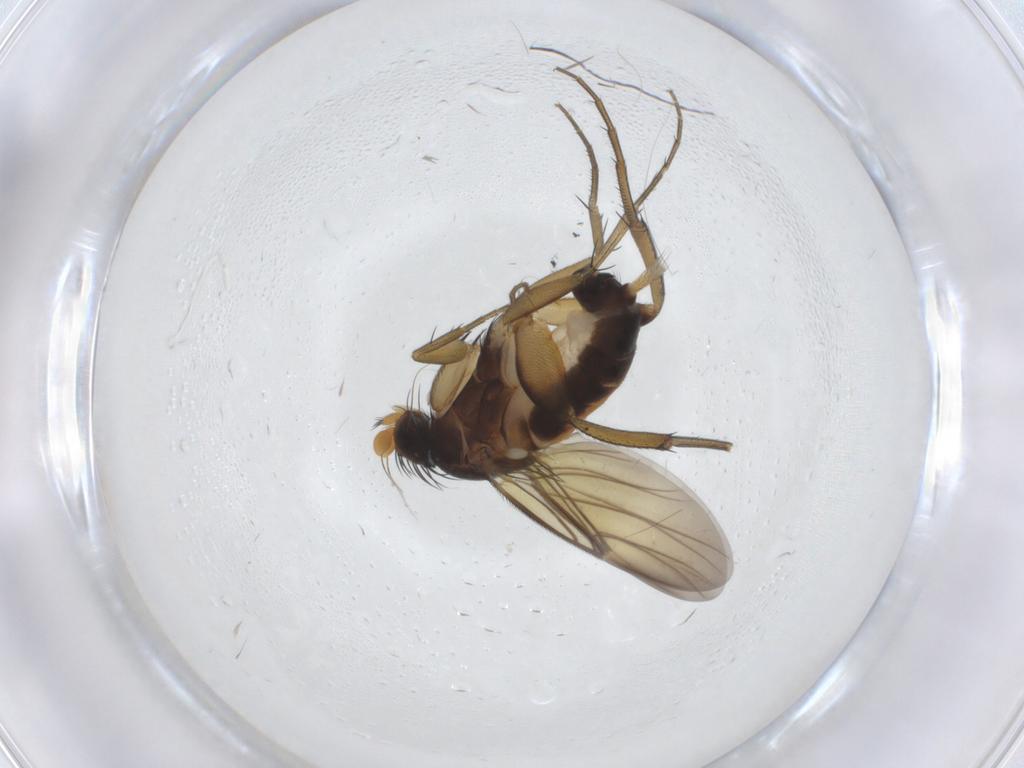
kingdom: Animalia
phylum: Arthropoda
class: Insecta
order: Diptera
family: Phoridae
